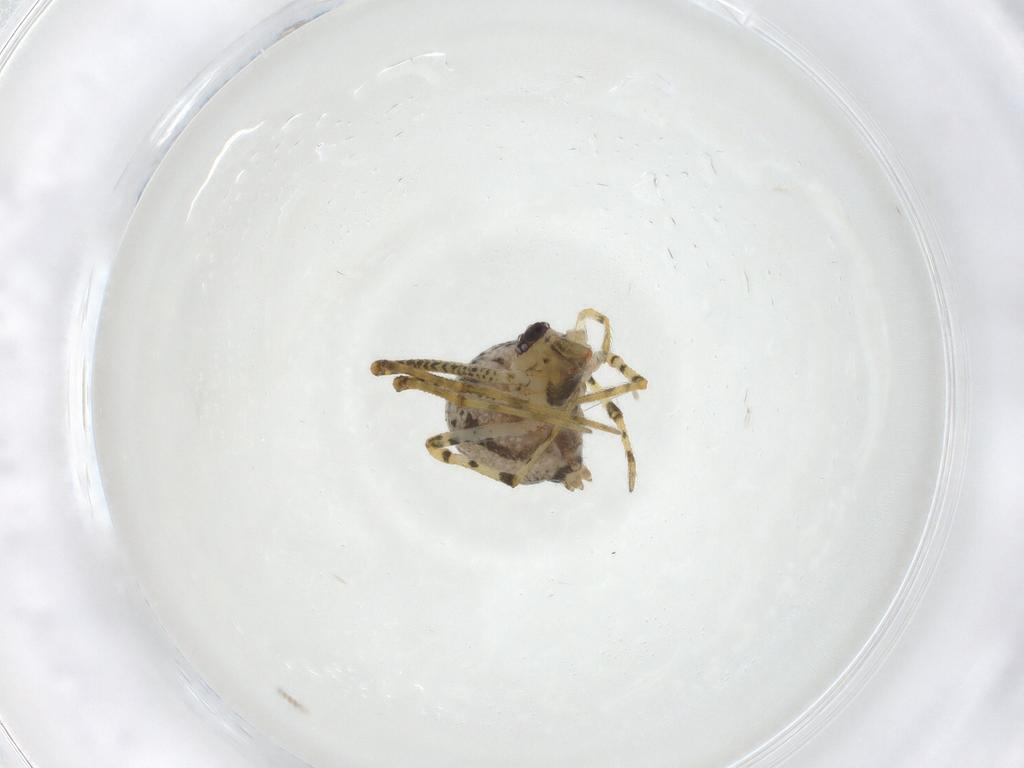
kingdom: Animalia
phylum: Arthropoda
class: Arachnida
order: Araneae
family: Theridiidae
